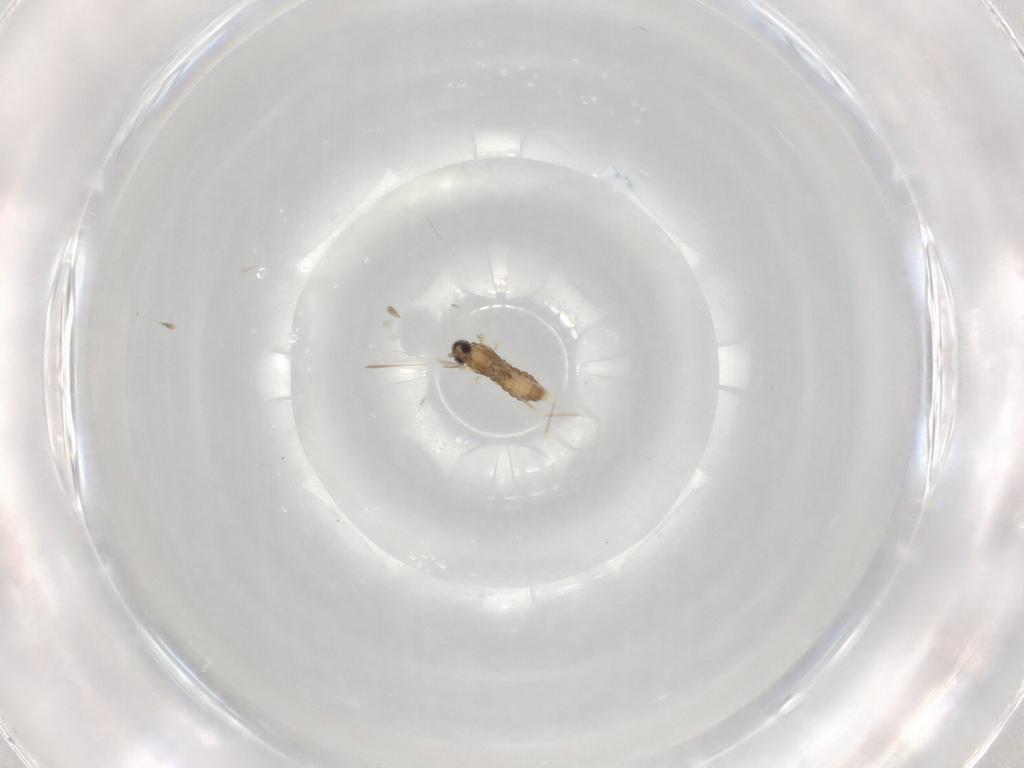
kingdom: Animalia
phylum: Arthropoda
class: Insecta
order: Diptera
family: Cecidomyiidae
